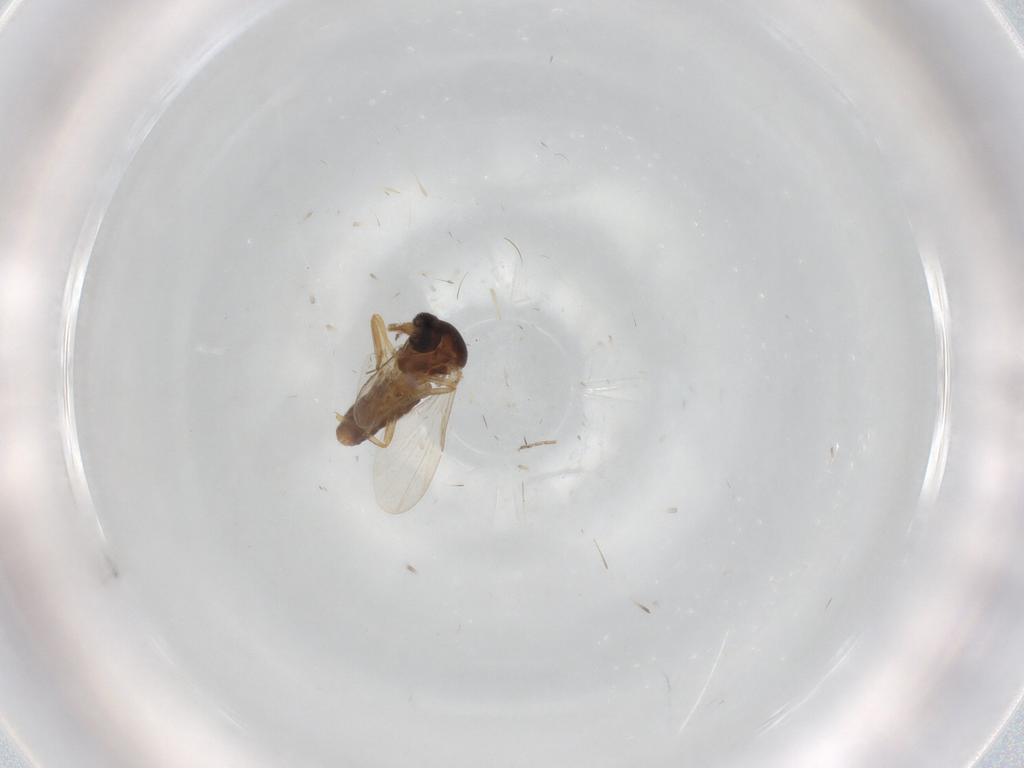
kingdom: Animalia
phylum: Arthropoda
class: Insecta
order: Diptera
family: Ceratopogonidae
